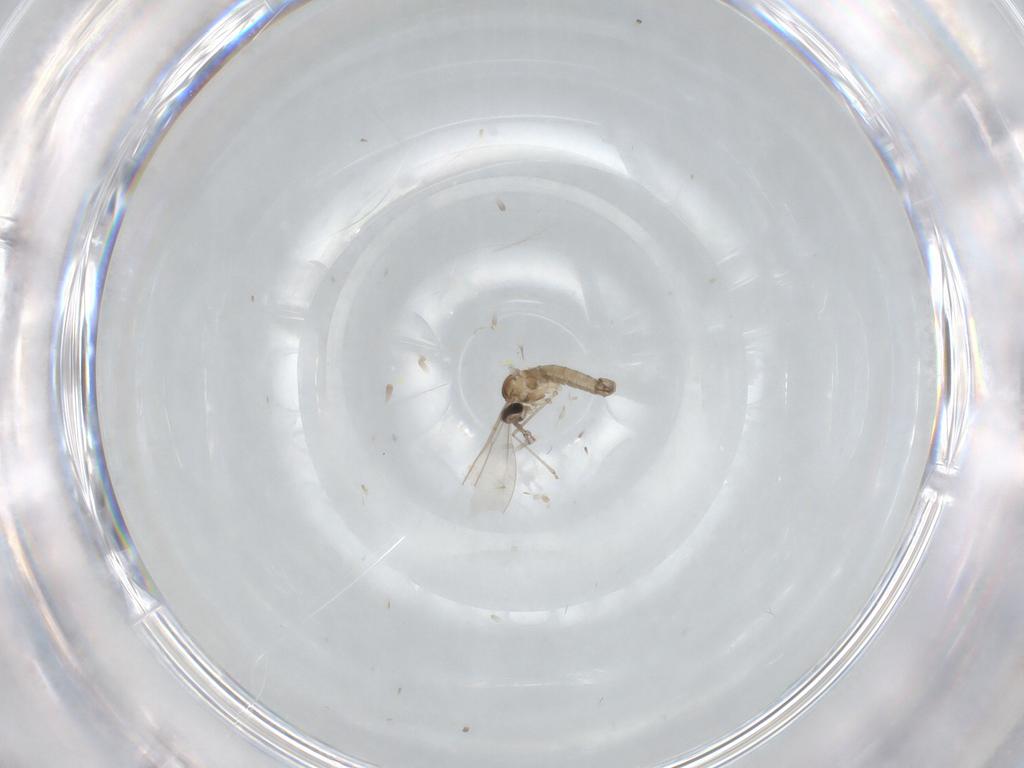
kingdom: Animalia
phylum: Arthropoda
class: Insecta
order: Diptera
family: Cecidomyiidae
